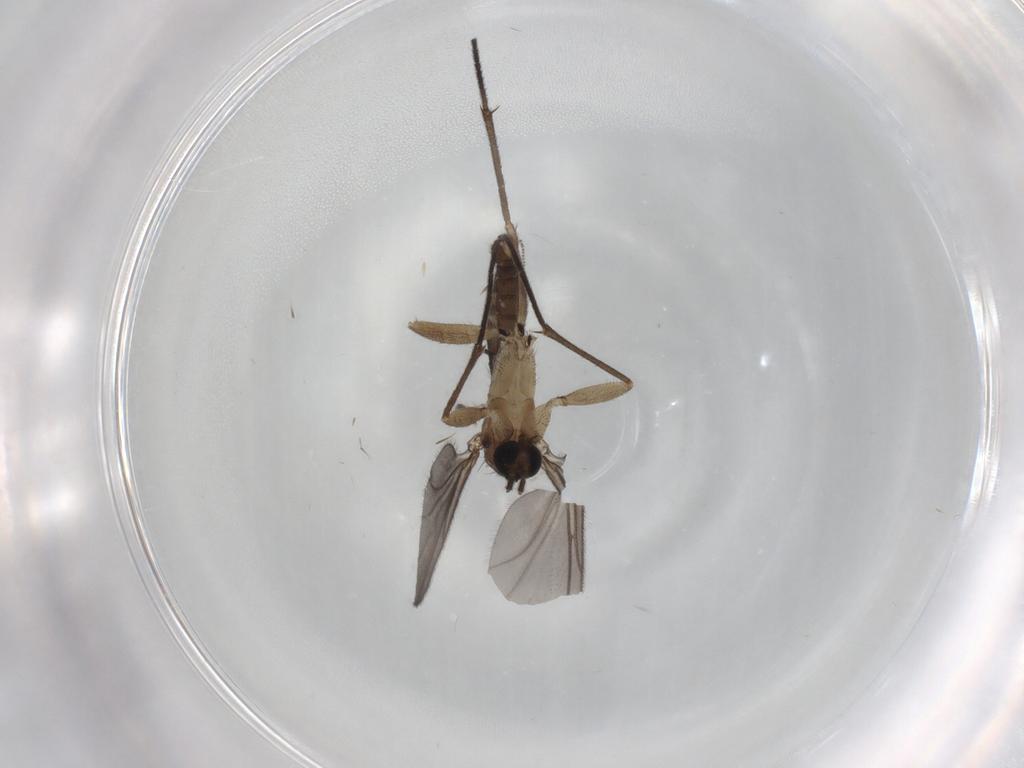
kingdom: Animalia
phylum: Arthropoda
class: Insecta
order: Diptera
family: Sciaridae
